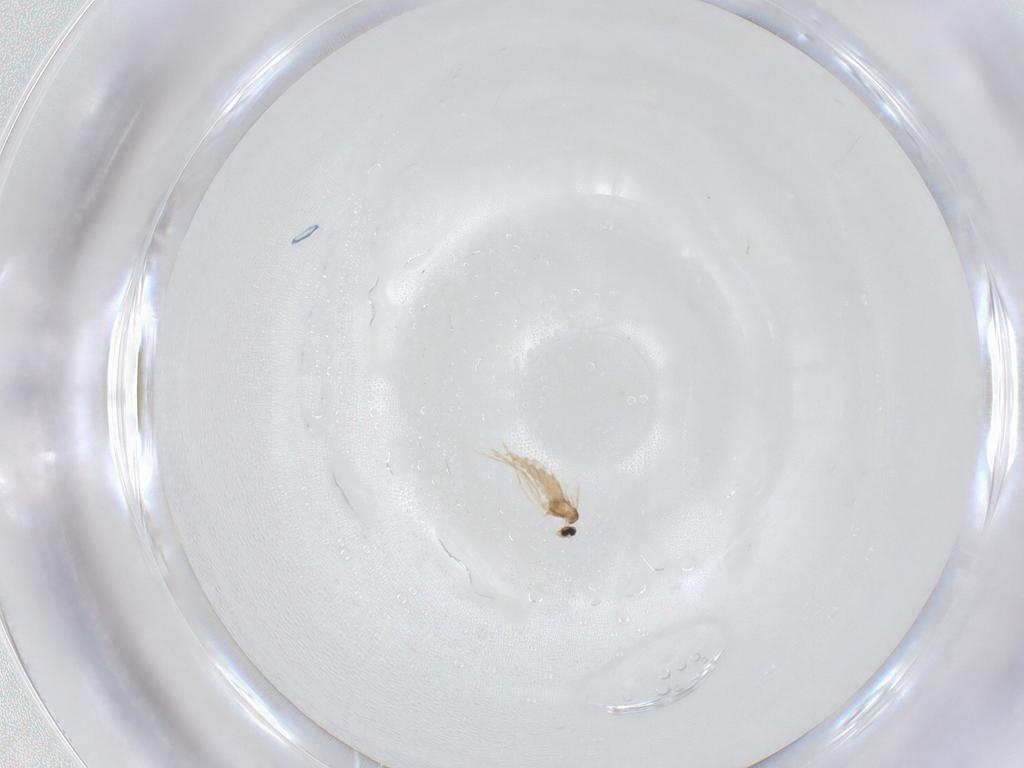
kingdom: Animalia
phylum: Arthropoda
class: Insecta
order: Diptera
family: Cecidomyiidae
